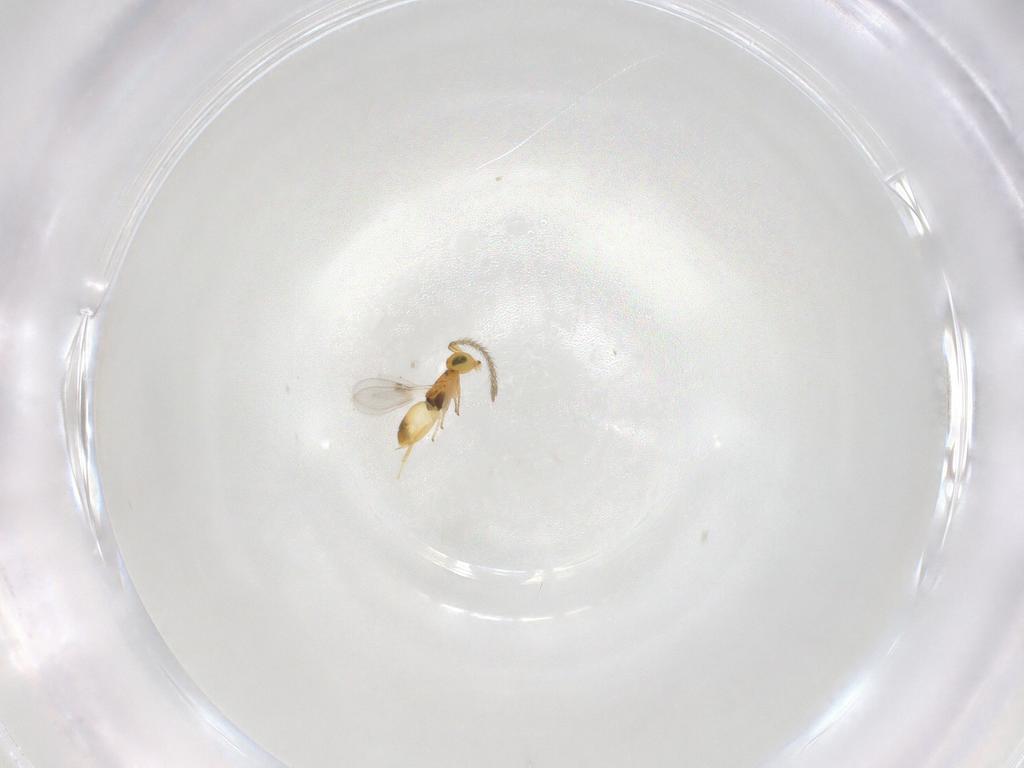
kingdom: Animalia
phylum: Arthropoda
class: Insecta
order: Hymenoptera
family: Encyrtidae
